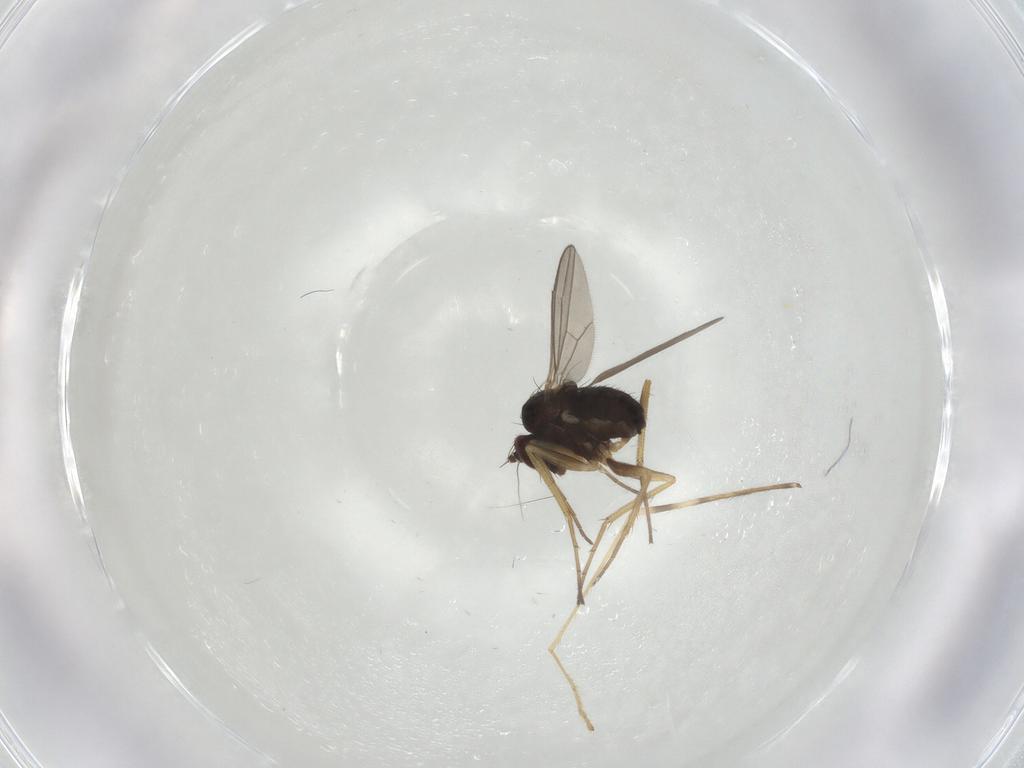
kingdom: Animalia
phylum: Arthropoda
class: Insecta
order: Diptera
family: Dolichopodidae
